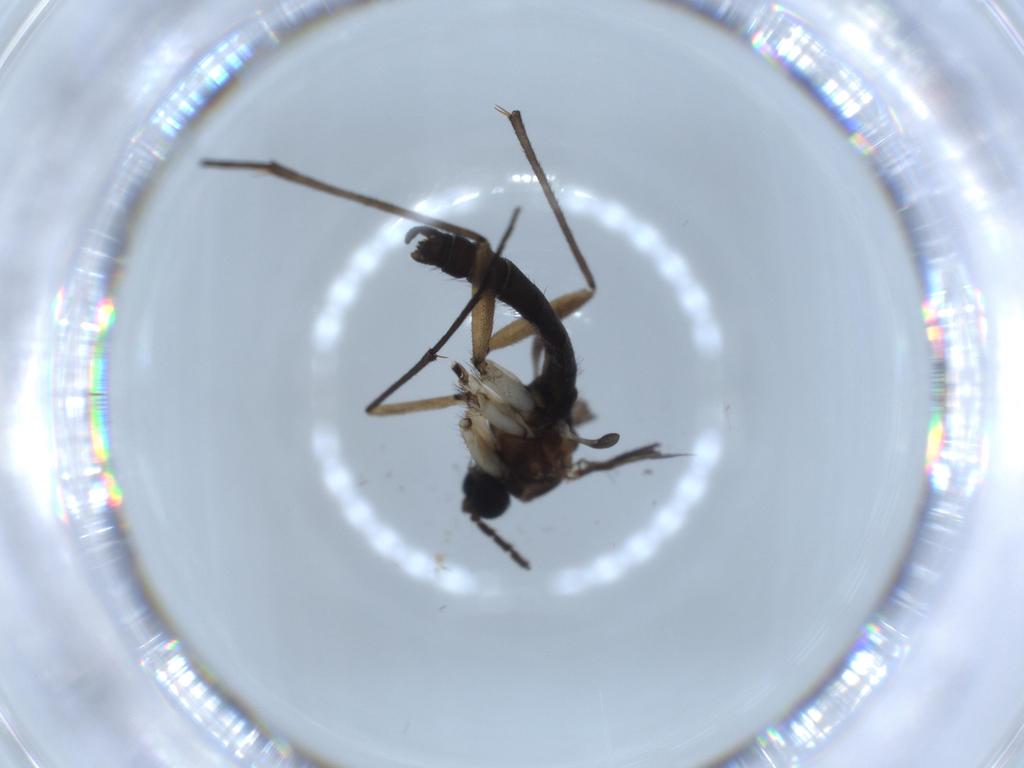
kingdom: Animalia
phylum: Arthropoda
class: Insecta
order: Diptera
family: Sciaridae
